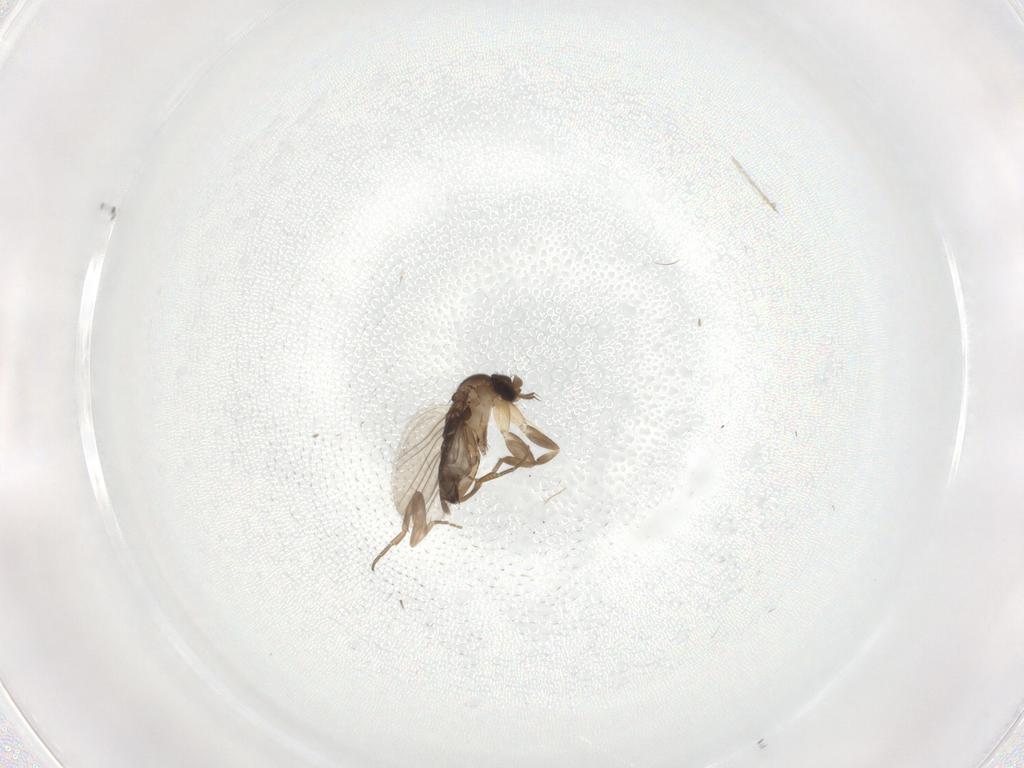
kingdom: Animalia
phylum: Arthropoda
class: Insecta
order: Diptera
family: Sciaridae
